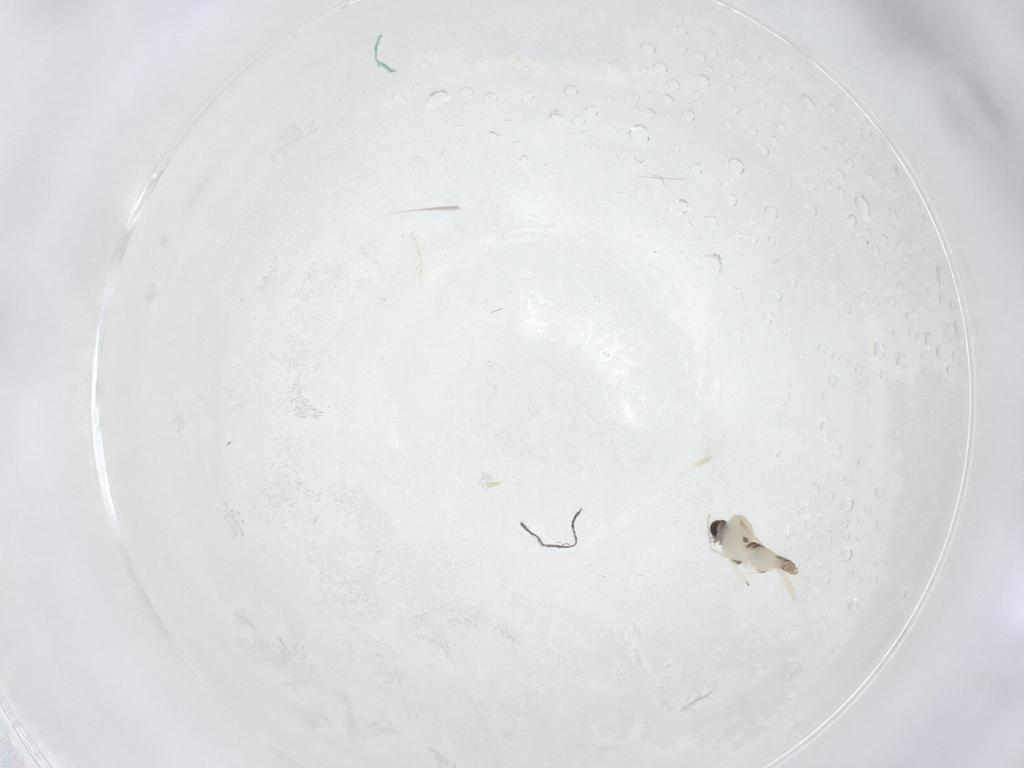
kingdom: Animalia
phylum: Arthropoda
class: Insecta
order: Diptera
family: Chironomidae
